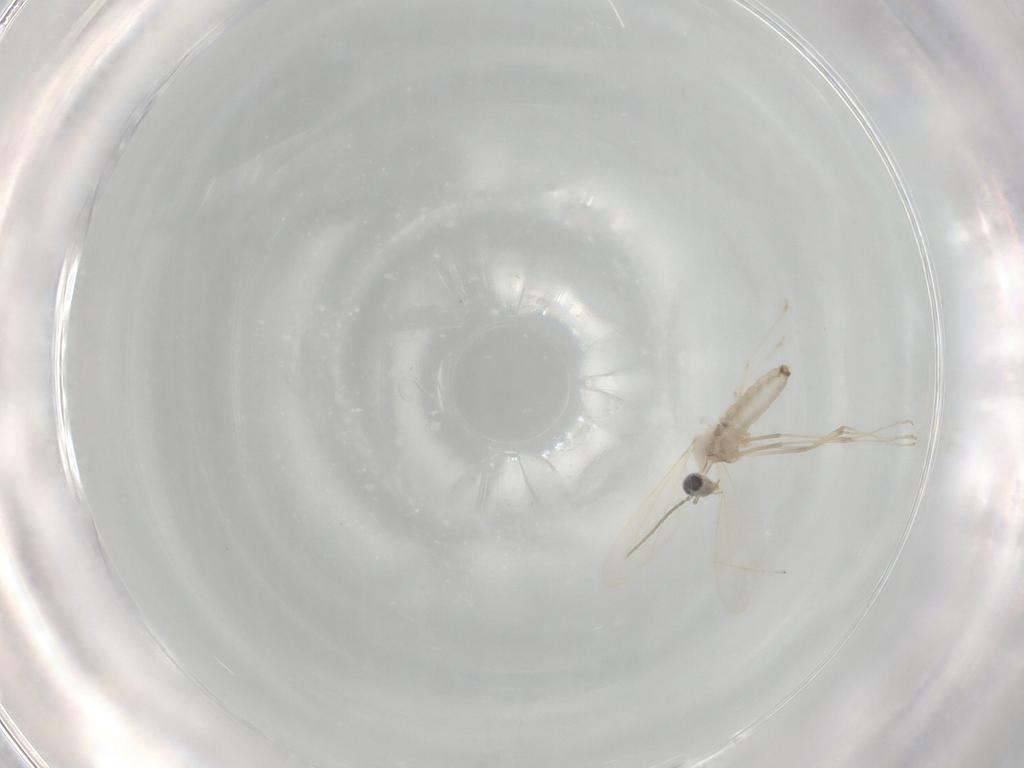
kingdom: Animalia
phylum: Arthropoda
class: Insecta
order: Diptera
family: Cecidomyiidae
